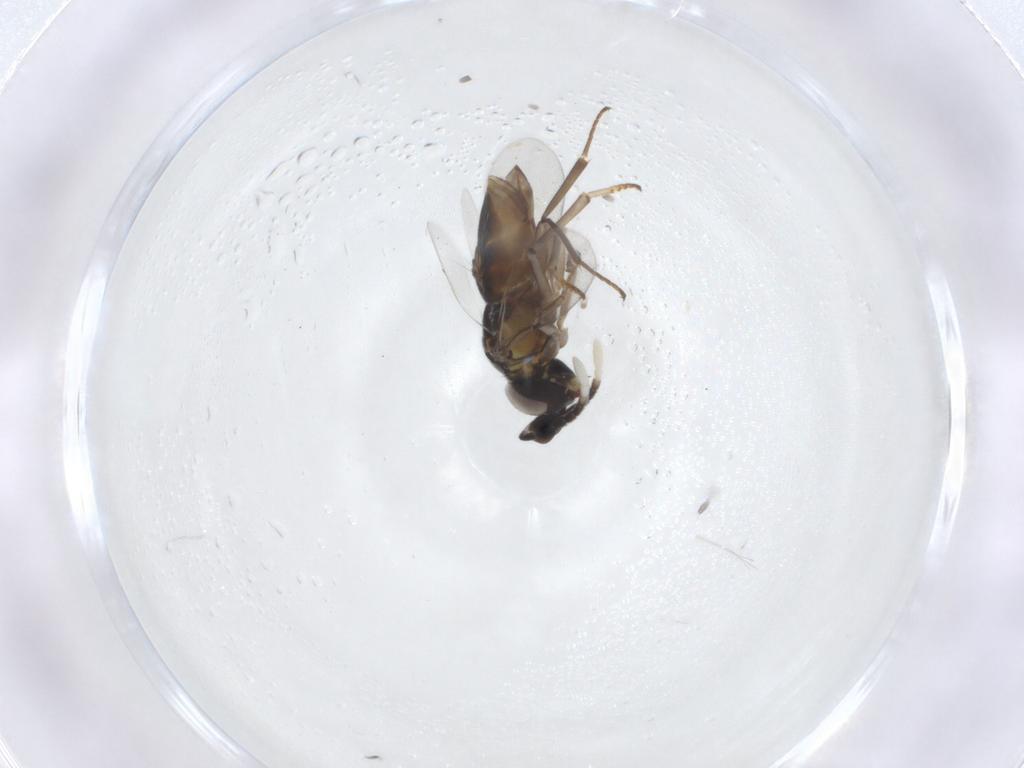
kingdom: Animalia
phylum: Arthropoda
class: Insecta
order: Hymenoptera
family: Encyrtidae
